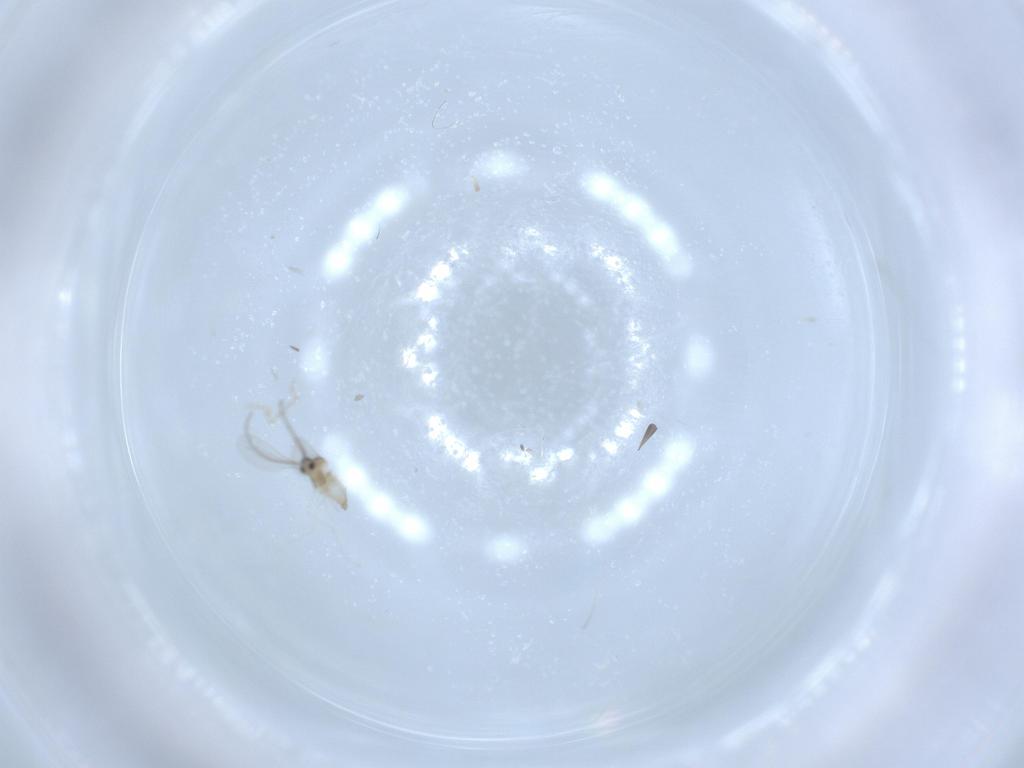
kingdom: Animalia
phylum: Arthropoda
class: Insecta
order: Diptera
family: Cecidomyiidae
